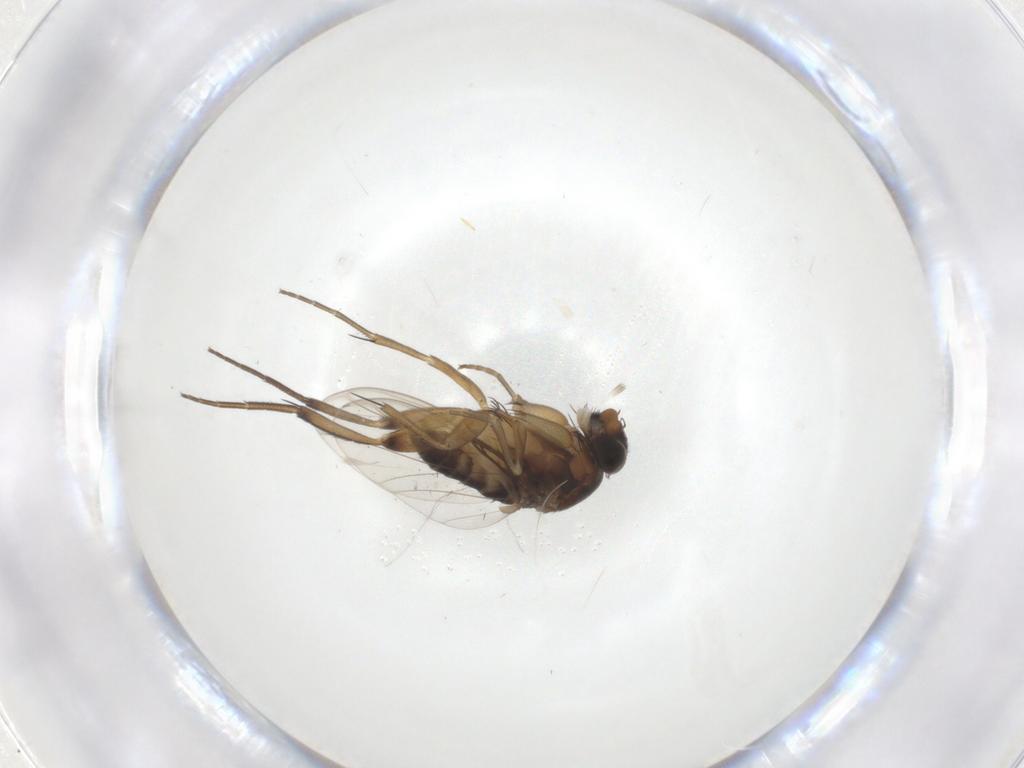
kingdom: Animalia
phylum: Arthropoda
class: Insecta
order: Diptera
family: Phoridae
